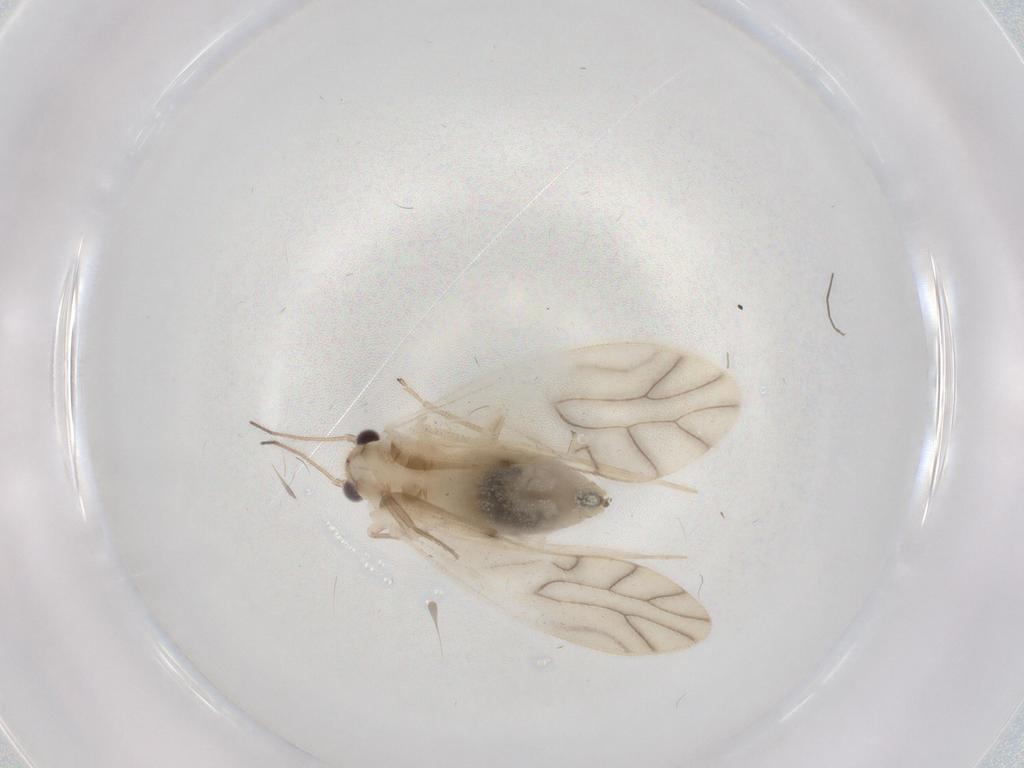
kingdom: Animalia
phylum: Arthropoda
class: Insecta
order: Psocodea
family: Caeciliusidae
